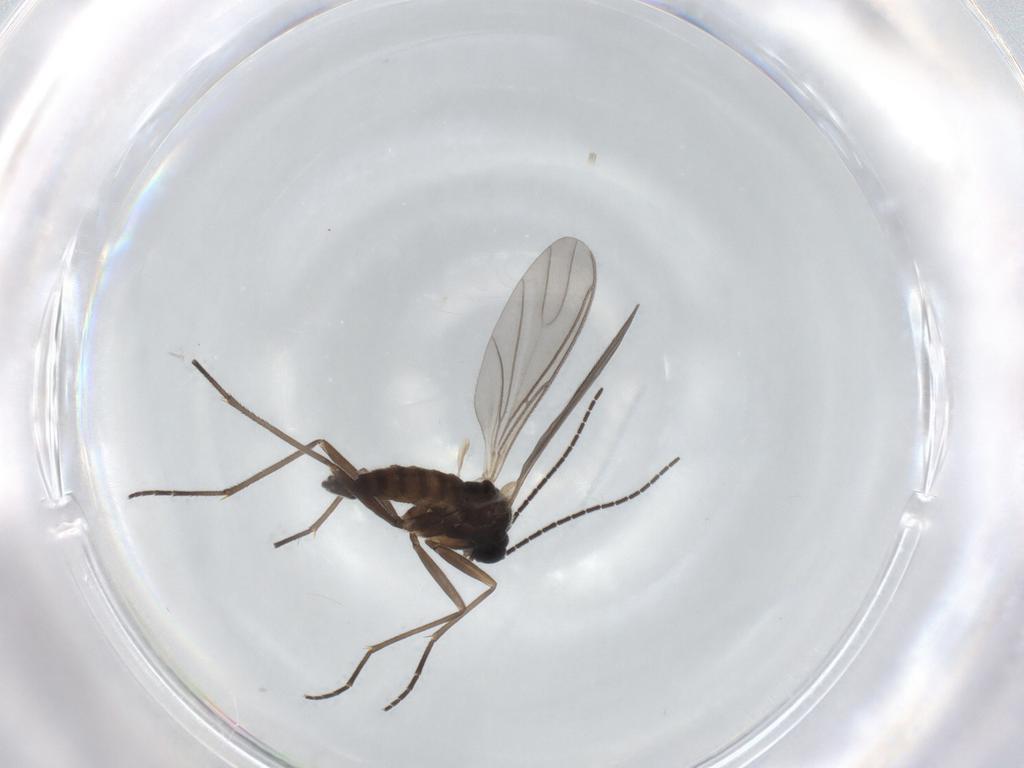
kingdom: Animalia
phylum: Arthropoda
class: Insecta
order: Diptera
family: Sciaridae
